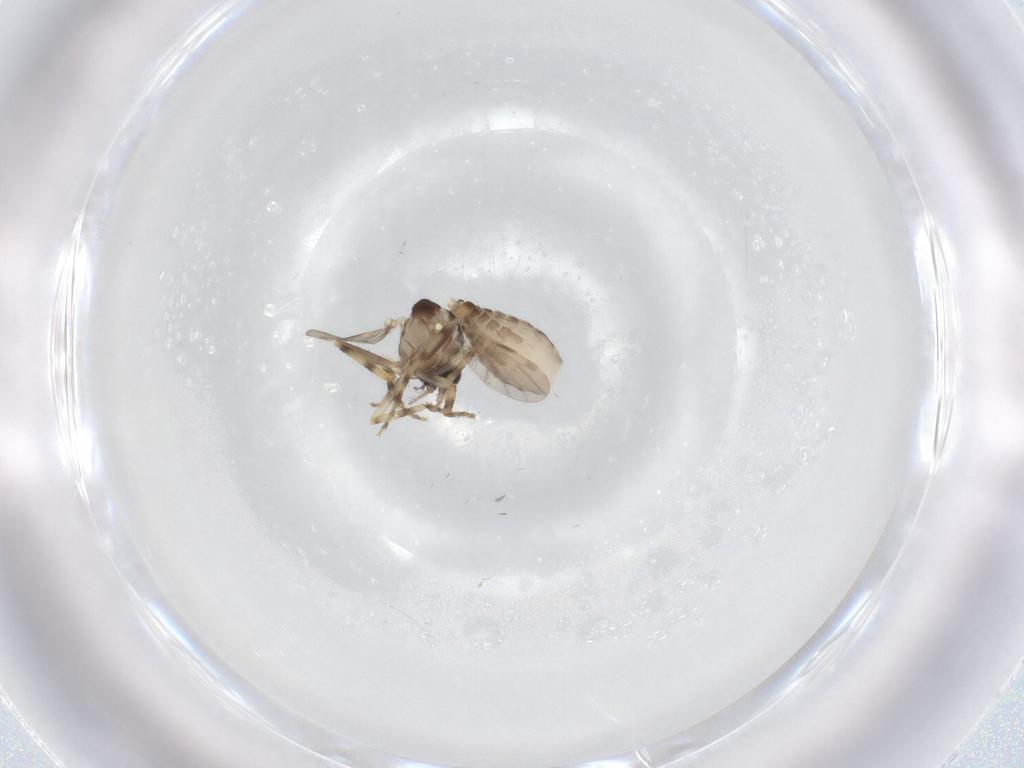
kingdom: Animalia
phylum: Arthropoda
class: Insecta
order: Diptera
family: Ceratopogonidae
